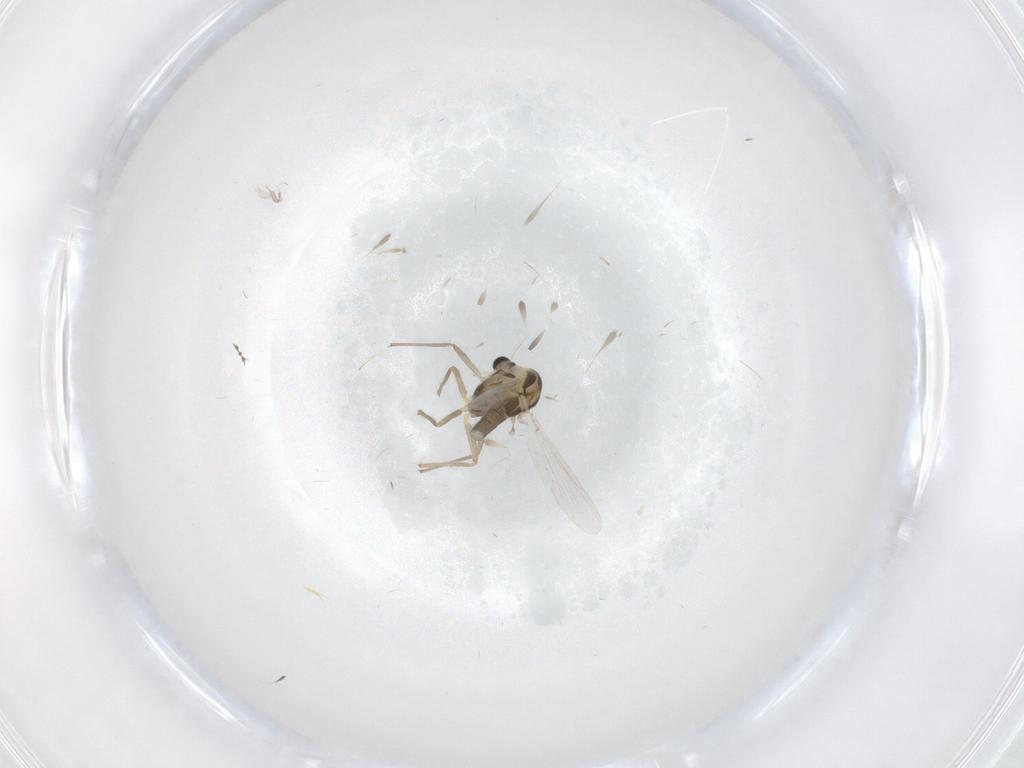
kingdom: Animalia
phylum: Arthropoda
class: Insecta
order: Diptera
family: Chironomidae
